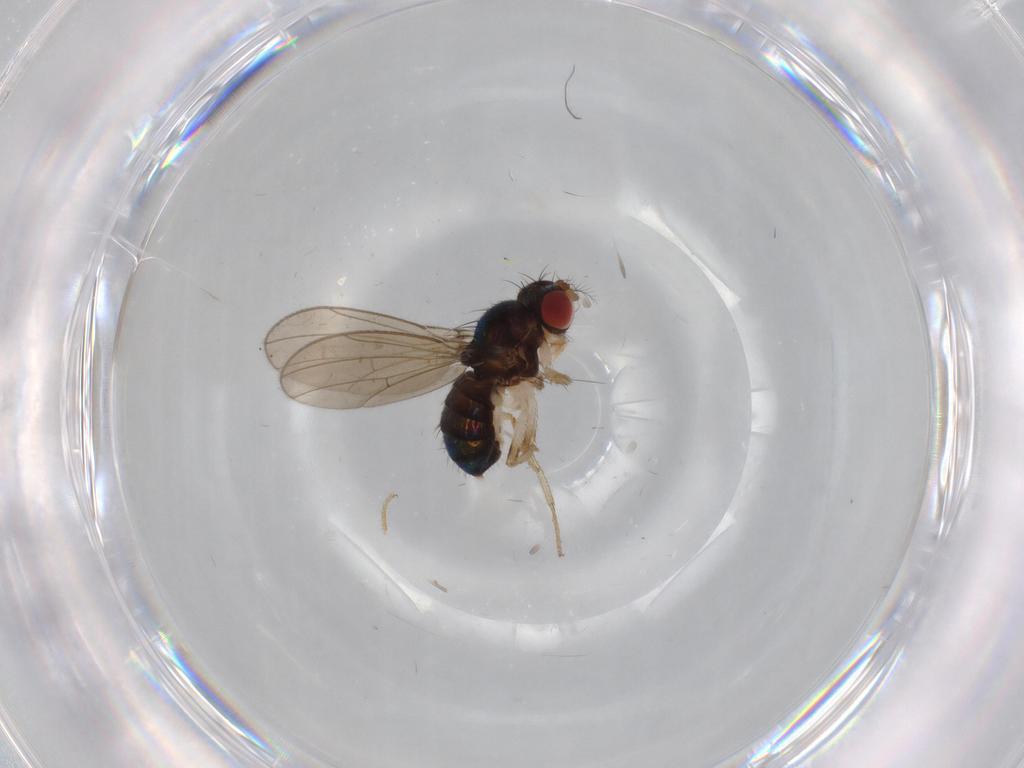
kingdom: Animalia
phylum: Arthropoda
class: Insecta
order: Diptera
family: Drosophilidae
